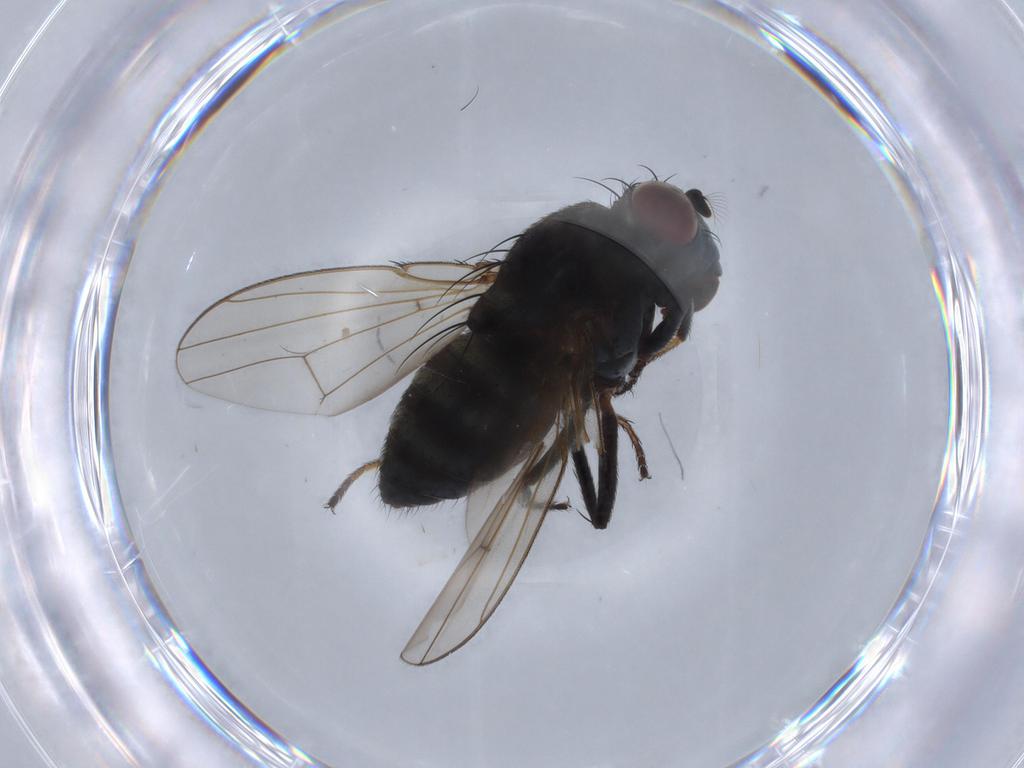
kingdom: Animalia
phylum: Arthropoda
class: Insecta
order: Diptera
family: Ephydridae
